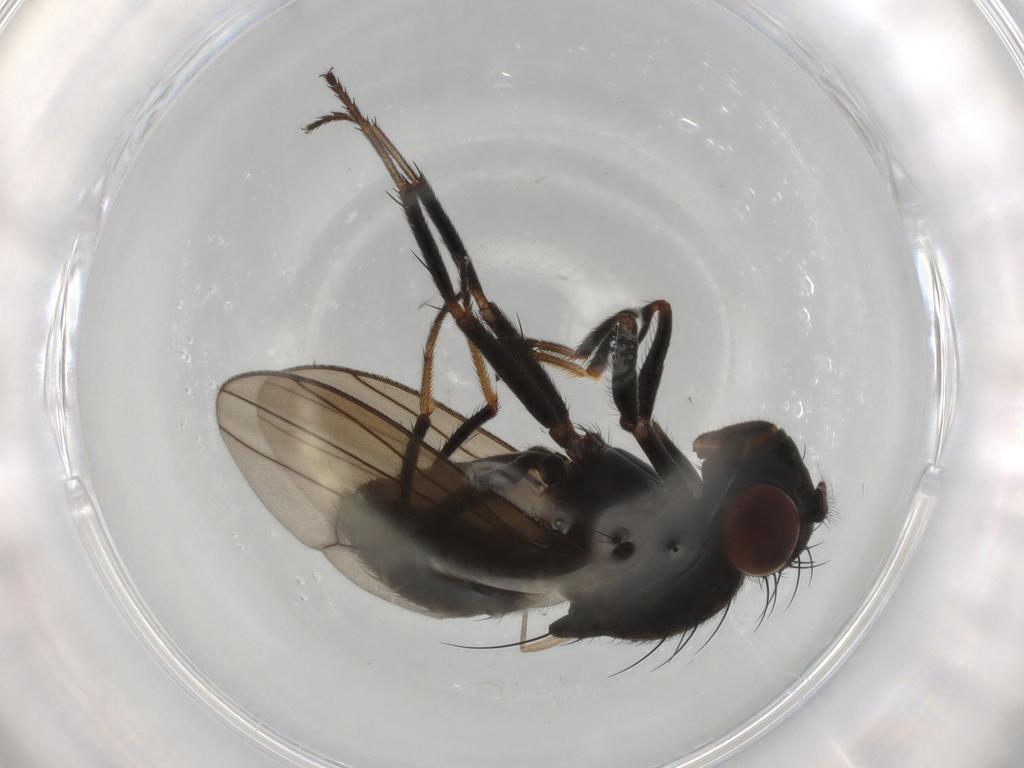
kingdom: Animalia
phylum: Arthropoda
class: Insecta
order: Diptera
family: Ephydridae
